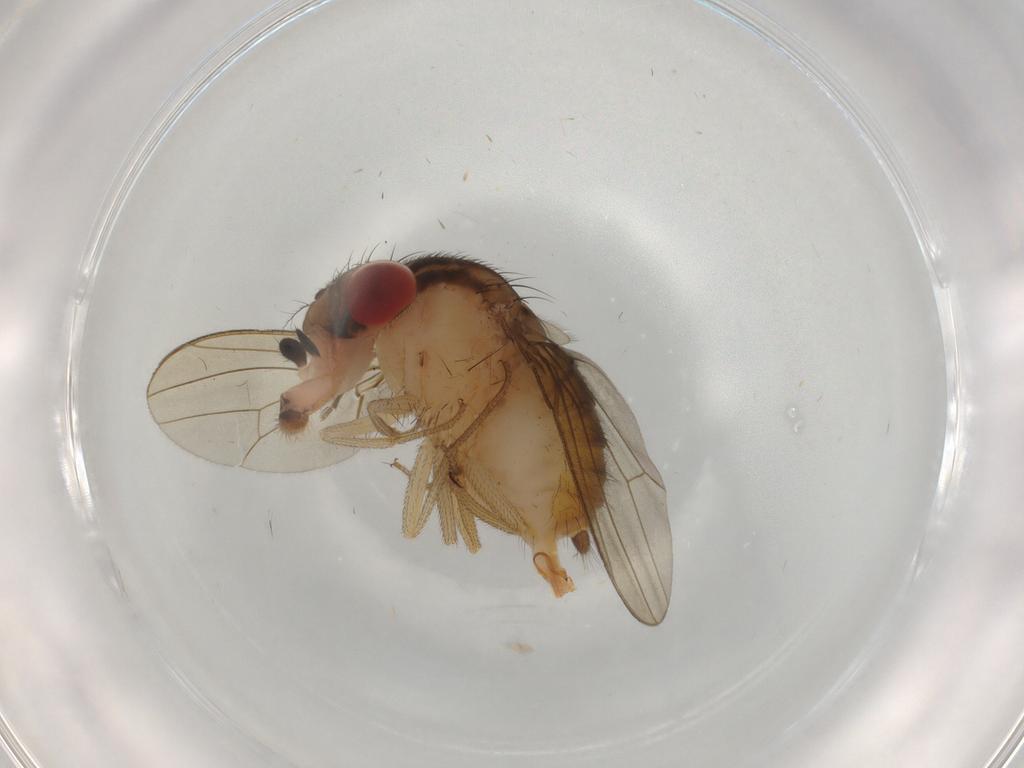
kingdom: Animalia
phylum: Arthropoda
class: Insecta
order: Diptera
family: Drosophilidae
